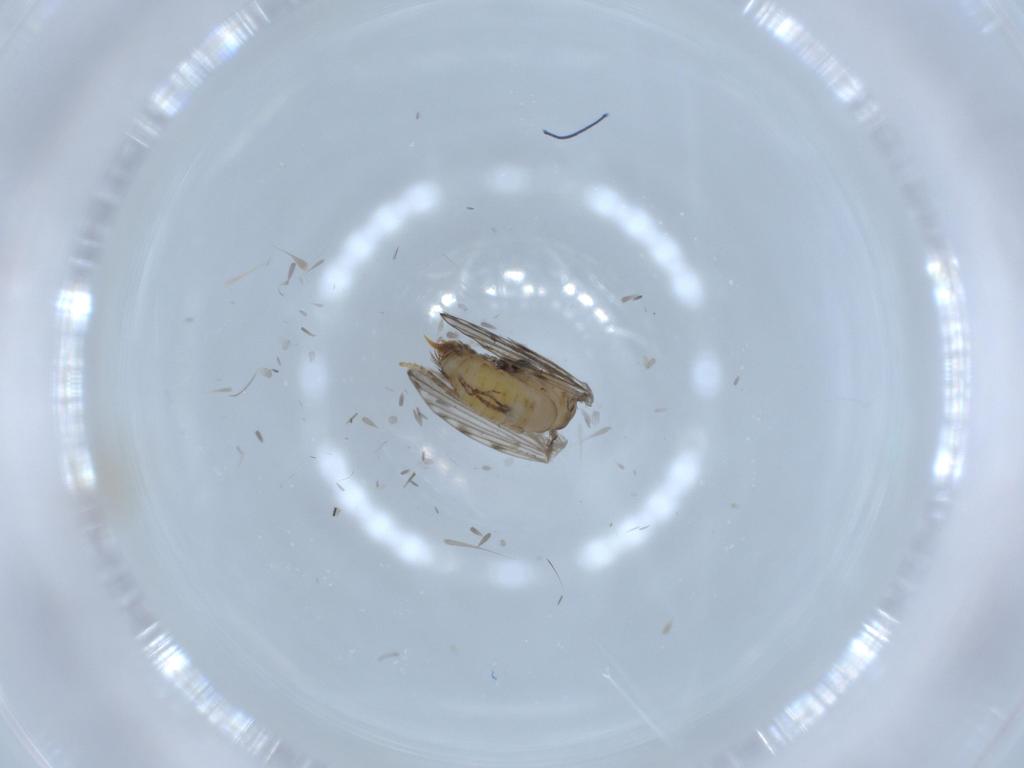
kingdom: Animalia
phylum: Arthropoda
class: Insecta
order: Diptera
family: Psychodidae
